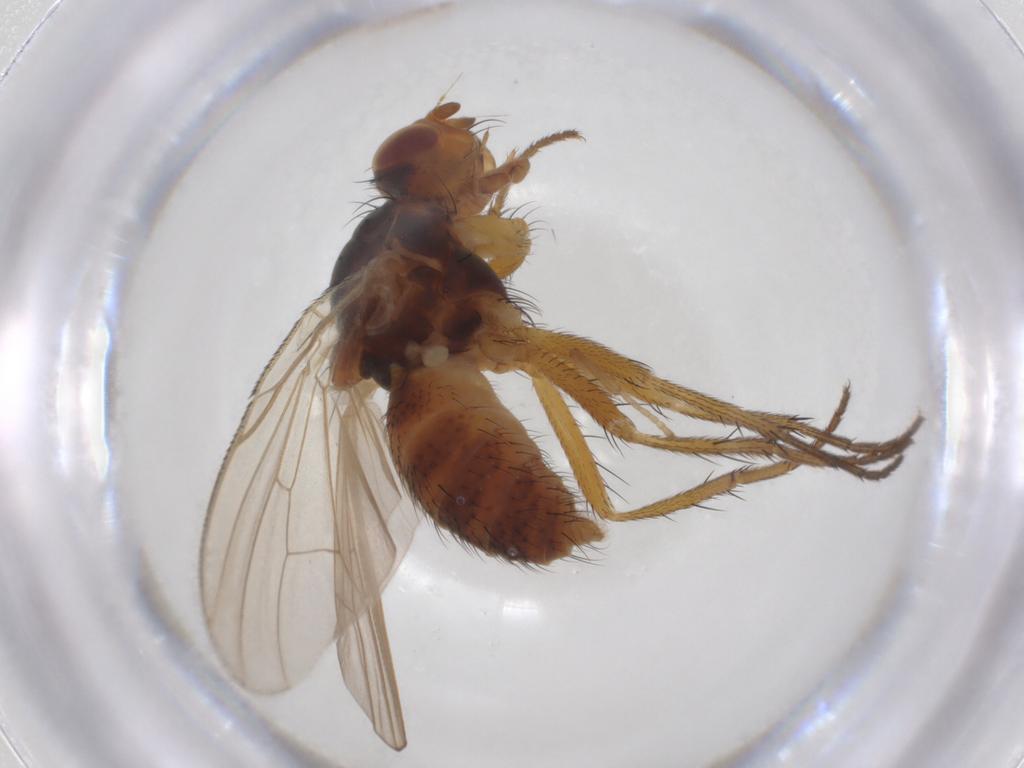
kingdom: Animalia
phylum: Arthropoda
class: Insecta
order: Diptera
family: Anthomyiidae
